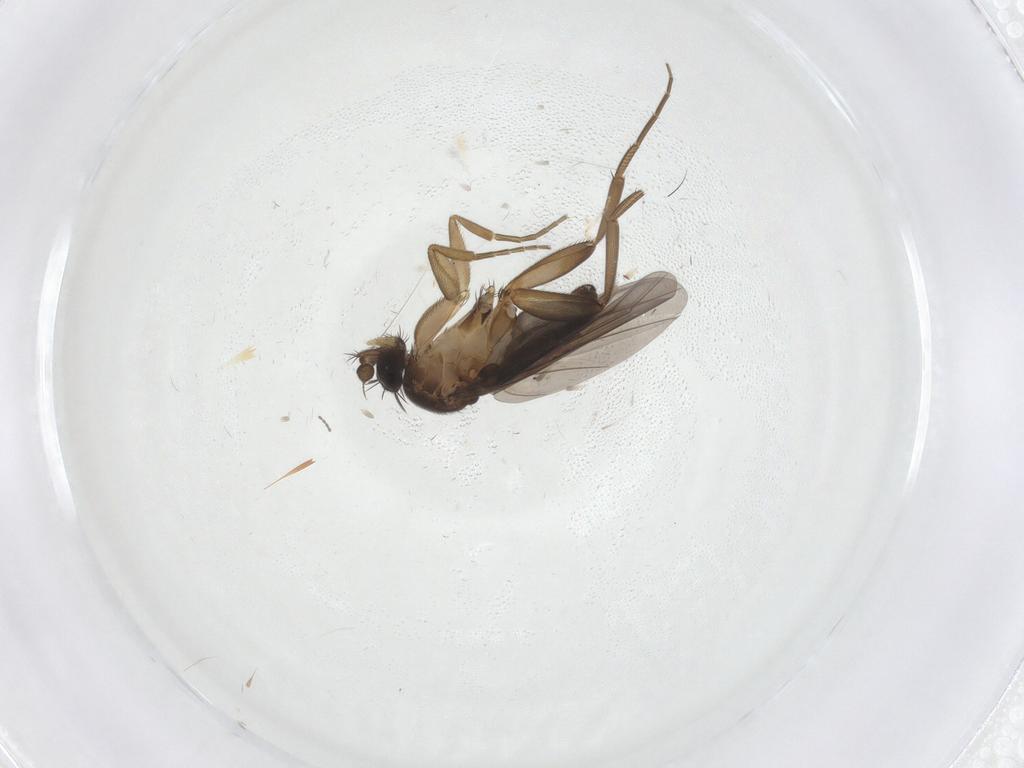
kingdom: Animalia
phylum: Arthropoda
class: Insecta
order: Diptera
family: Phoridae
